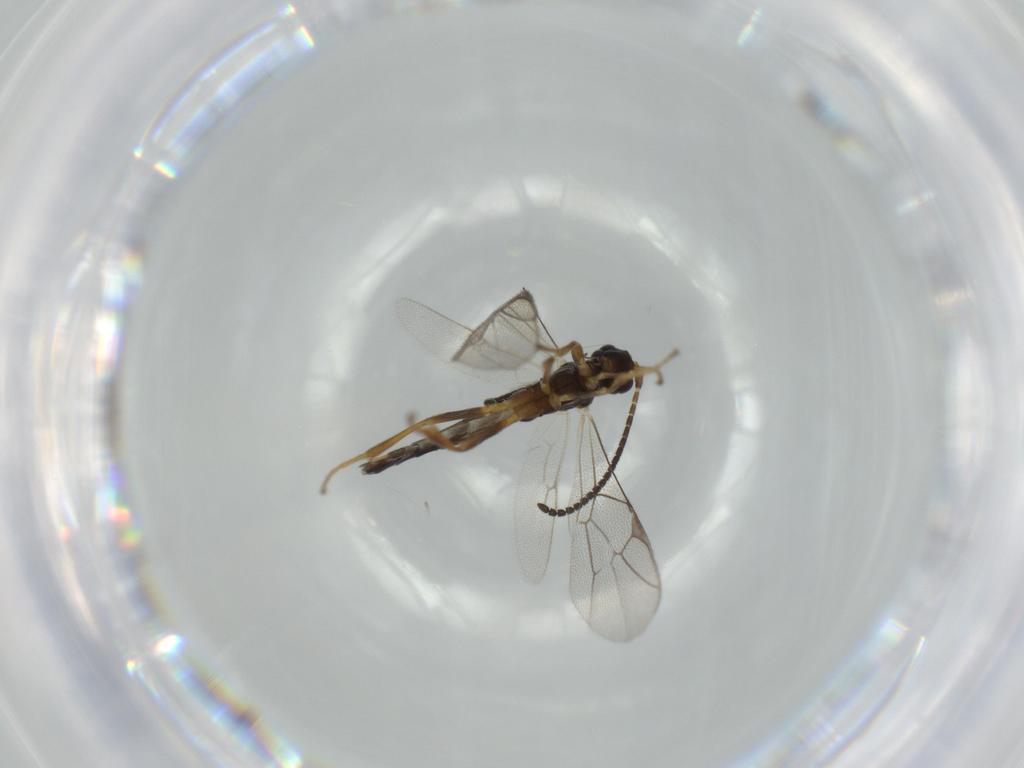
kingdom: Animalia
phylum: Arthropoda
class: Insecta
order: Hymenoptera
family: Ichneumonidae
